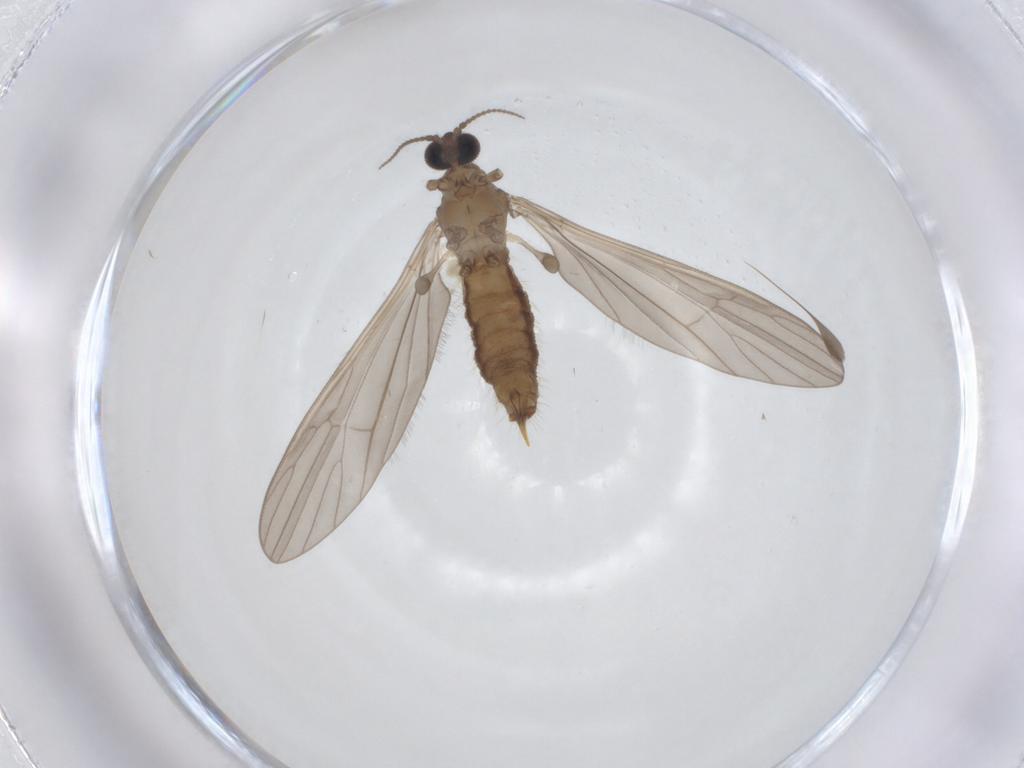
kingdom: Animalia
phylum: Arthropoda
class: Insecta
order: Diptera
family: Limoniidae
